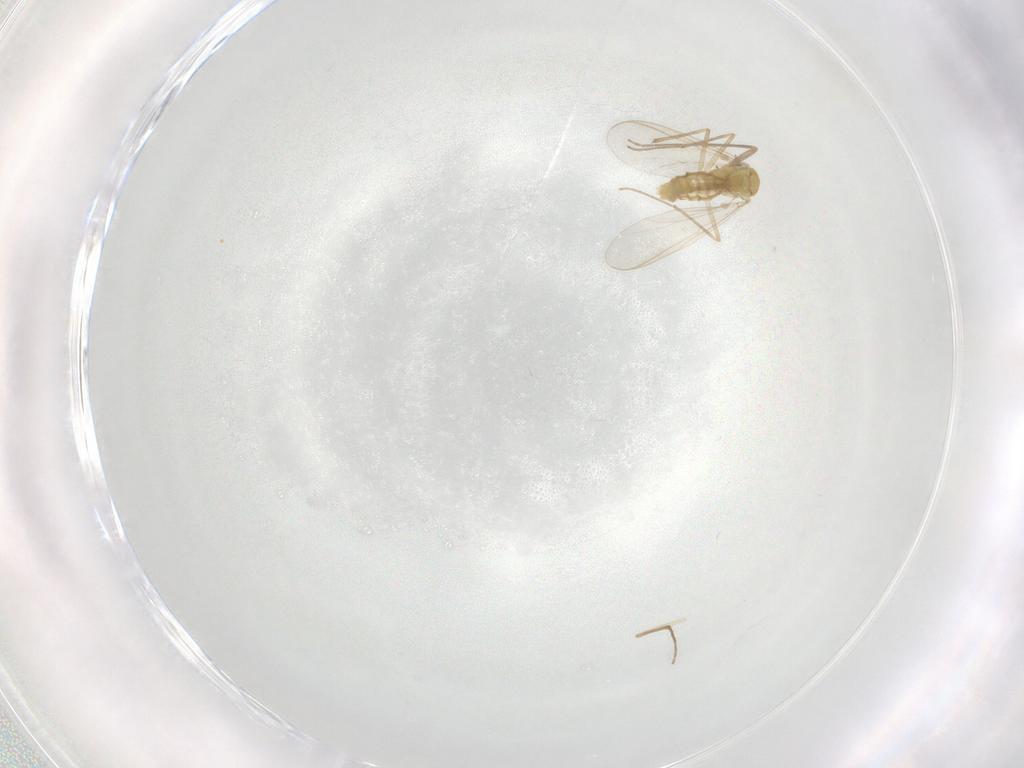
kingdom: Animalia
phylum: Arthropoda
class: Insecta
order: Diptera
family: Chironomidae
